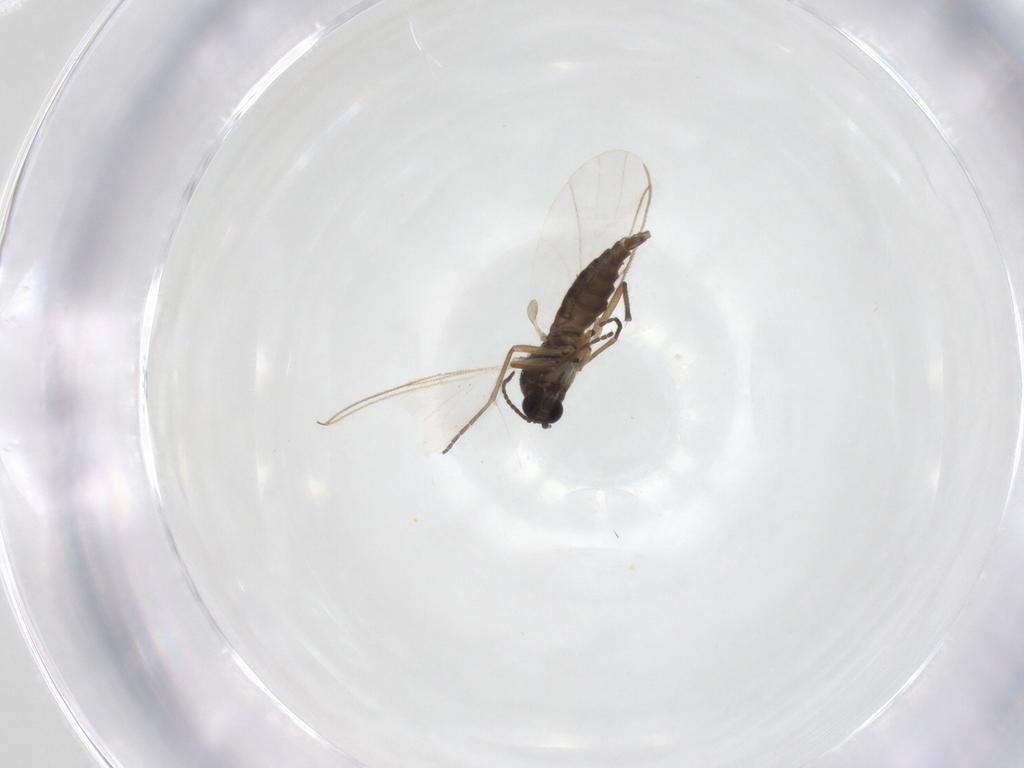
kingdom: Animalia
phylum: Arthropoda
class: Insecta
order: Diptera
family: Sciaridae
